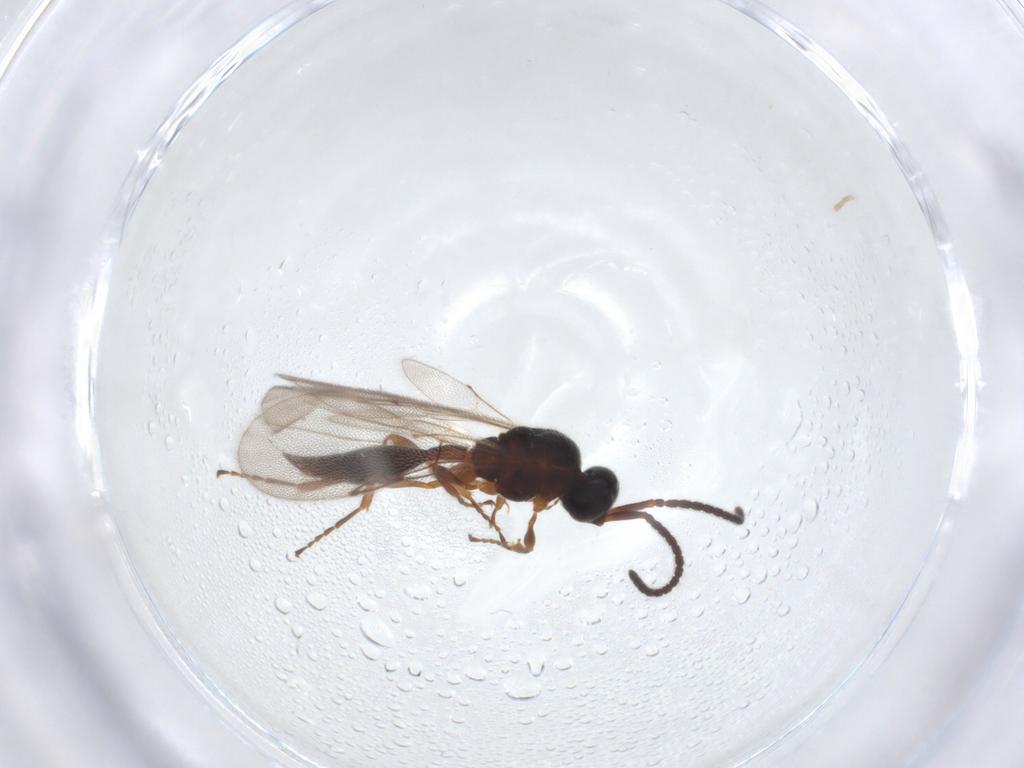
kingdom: Animalia
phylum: Arthropoda
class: Insecta
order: Hymenoptera
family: Diapriidae
